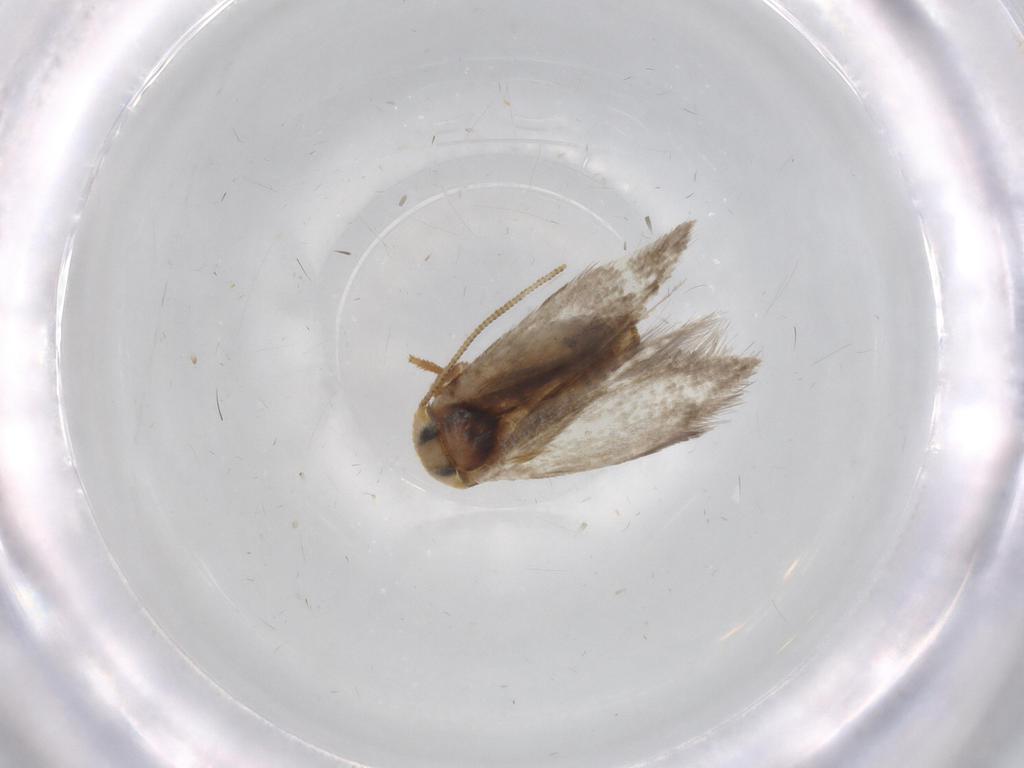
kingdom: Animalia
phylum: Arthropoda
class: Insecta
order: Lepidoptera
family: Nepticulidae
